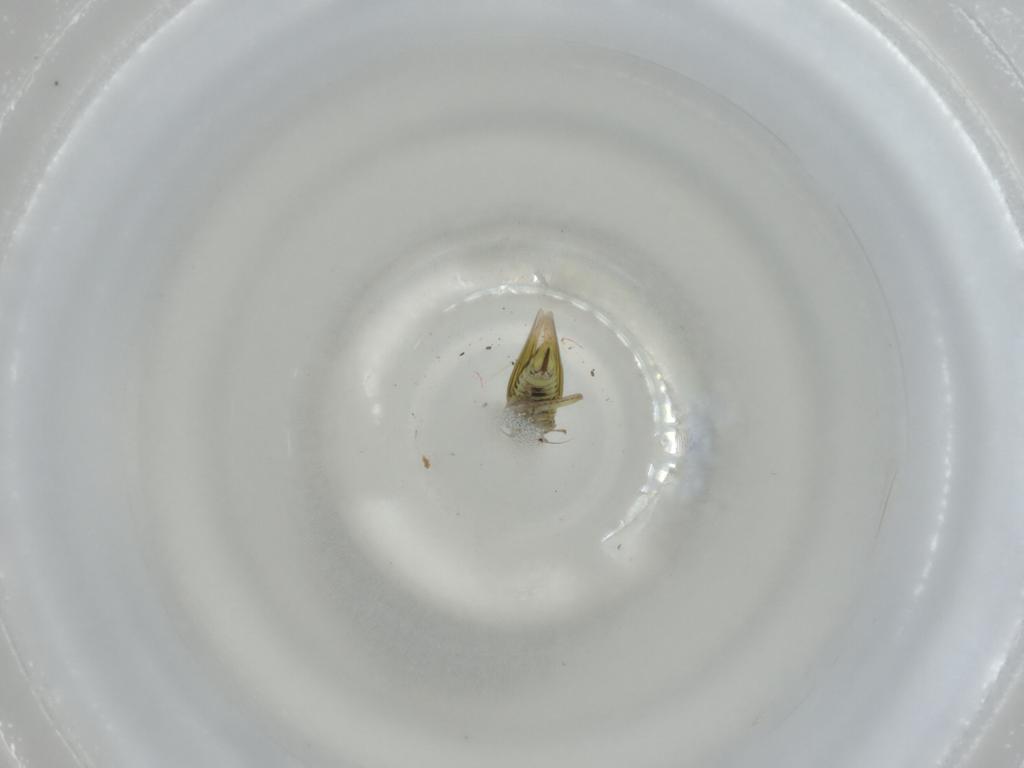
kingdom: Animalia
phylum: Arthropoda
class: Insecta
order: Hemiptera
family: Cicadellidae
